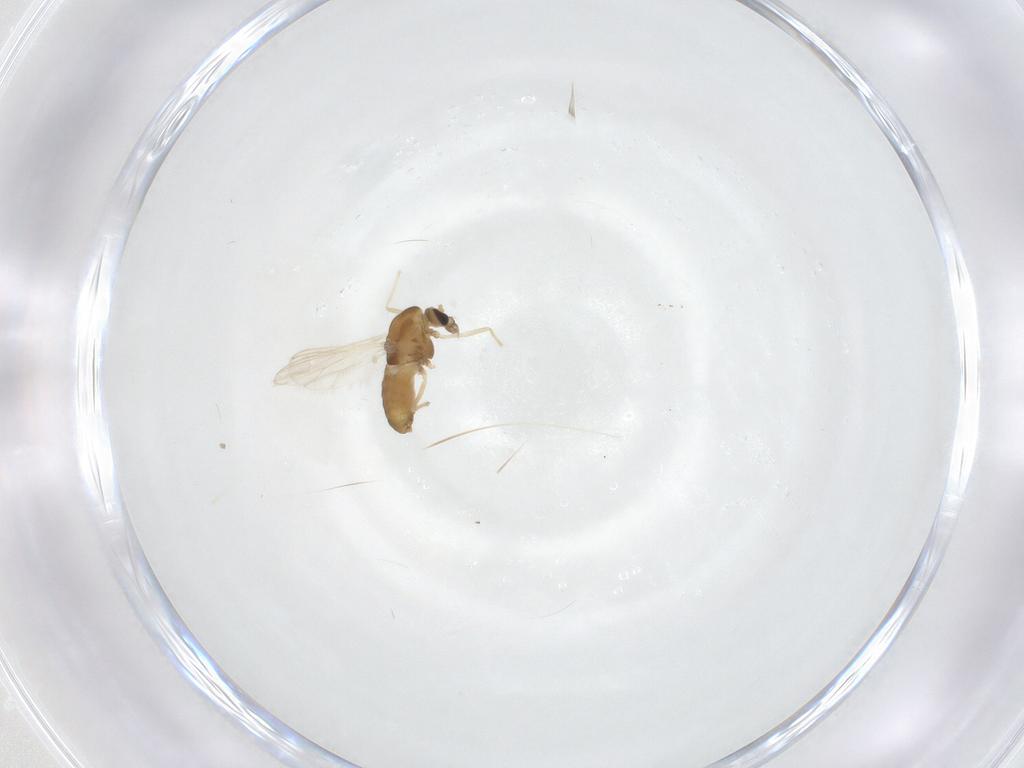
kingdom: Animalia
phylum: Arthropoda
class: Insecta
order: Diptera
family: Chironomidae
